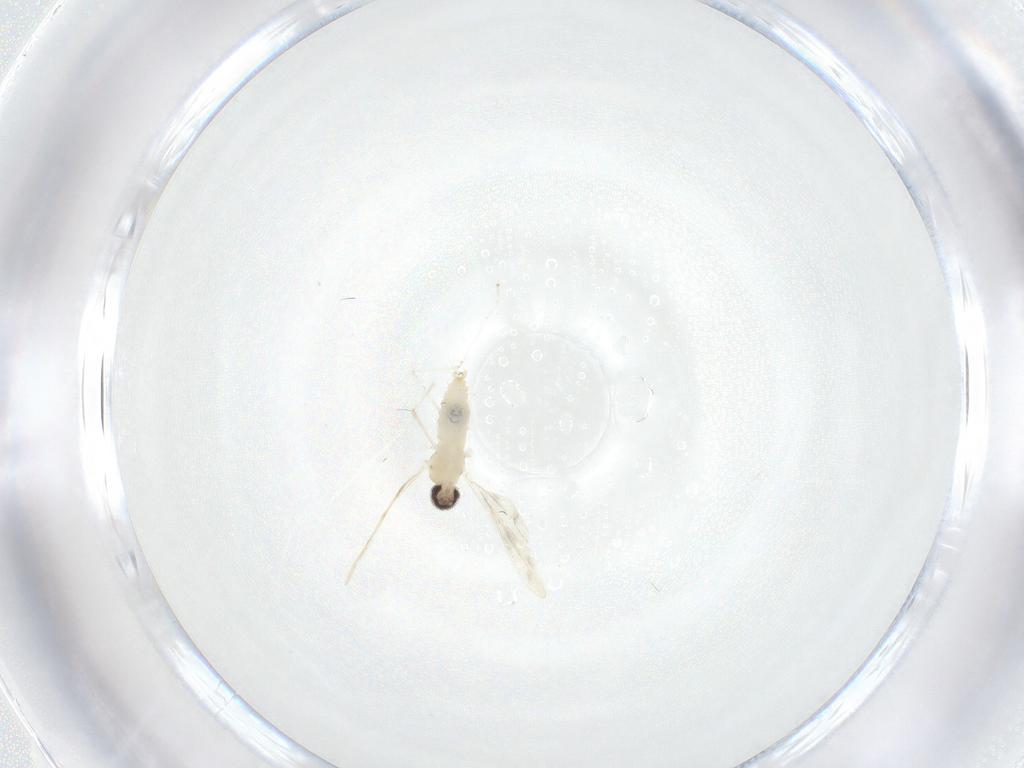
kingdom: Animalia
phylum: Arthropoda
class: Insecta
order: Diptera
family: Cecidomyiidae
